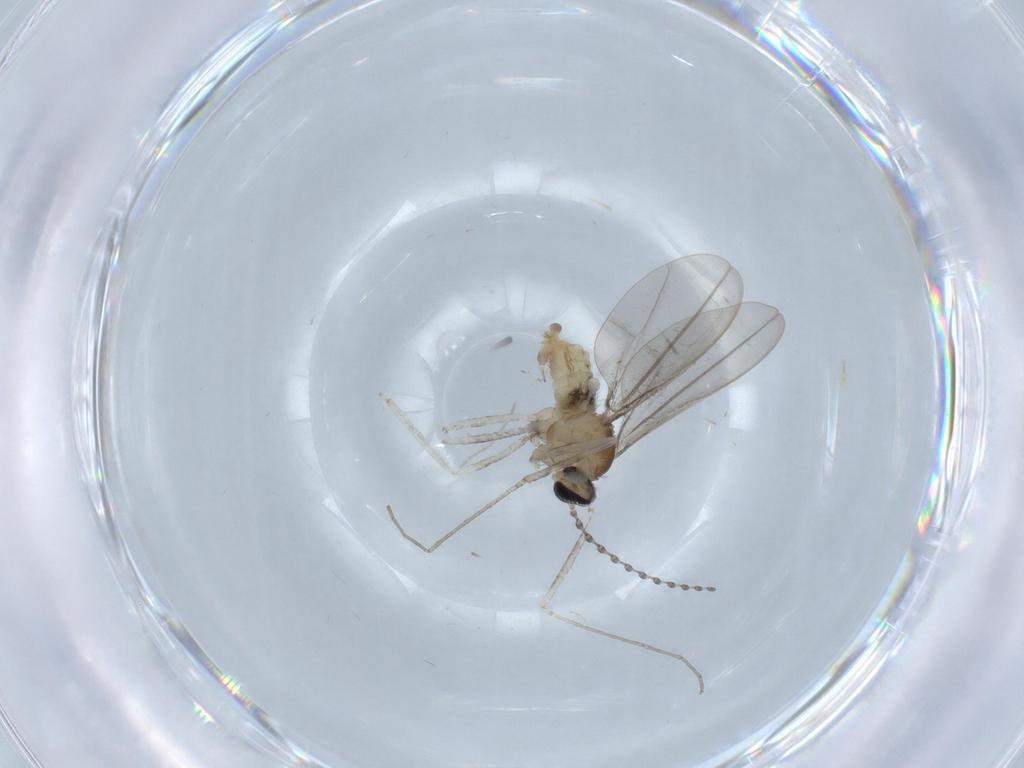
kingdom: Animalia
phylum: Arthropoda
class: Insecta
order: Diptera
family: Cecidomyiidae
